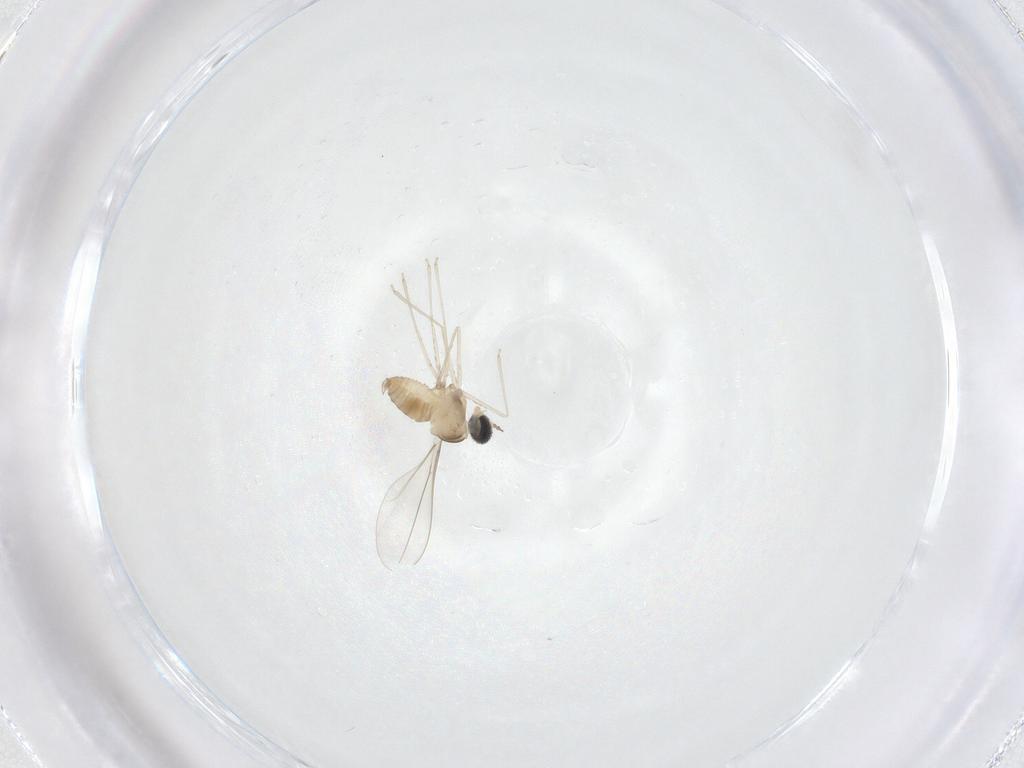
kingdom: Animalia
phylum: Arthropoda
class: Insecta
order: Diptera
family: Cecidomyiidae
